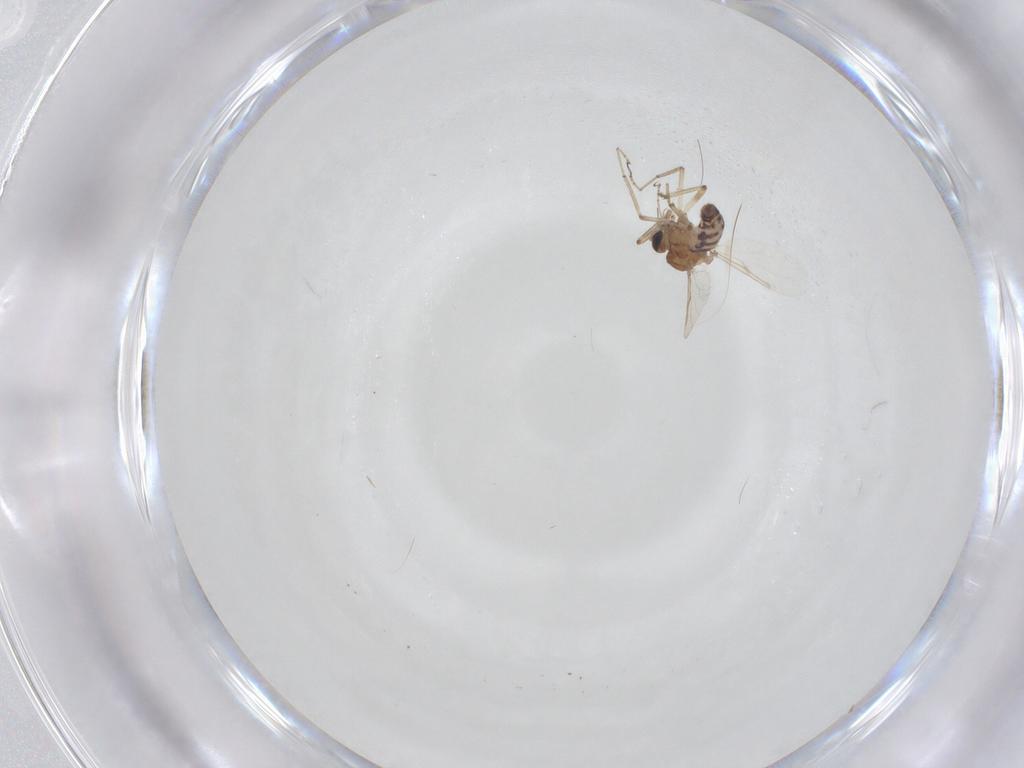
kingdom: Animalia
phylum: Arthropoda
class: Insecta
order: Diptera
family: Ceratopogonidae
